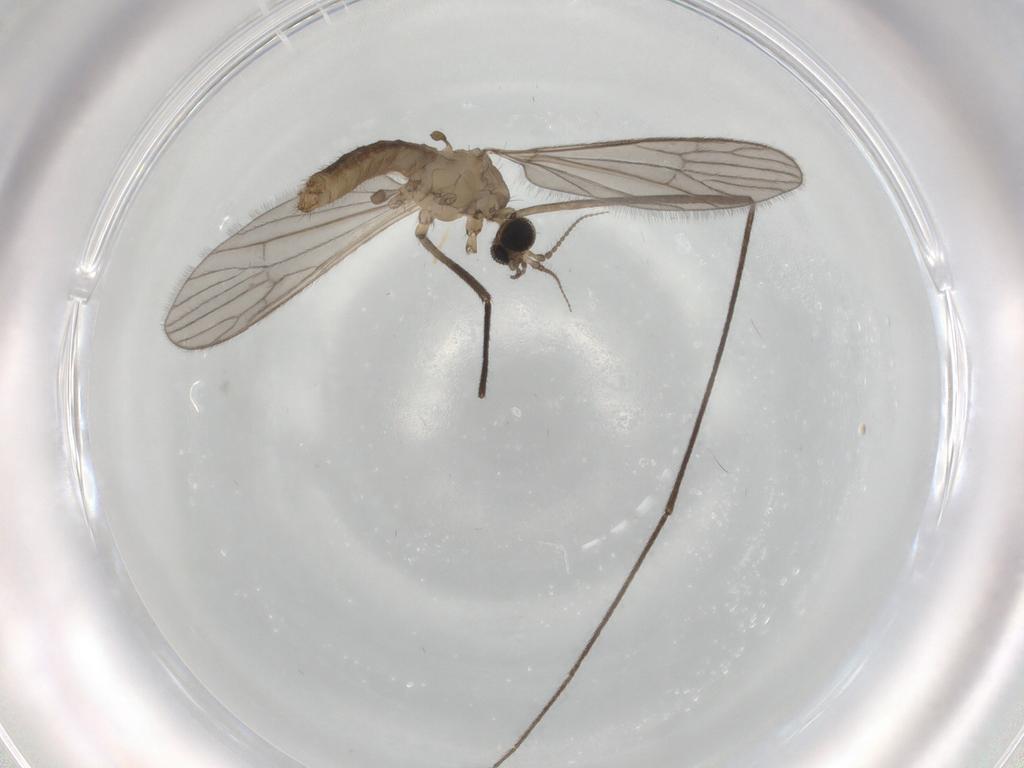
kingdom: Animalia
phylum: Arthropoda
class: Insecta
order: Diptera
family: Limoniidae
